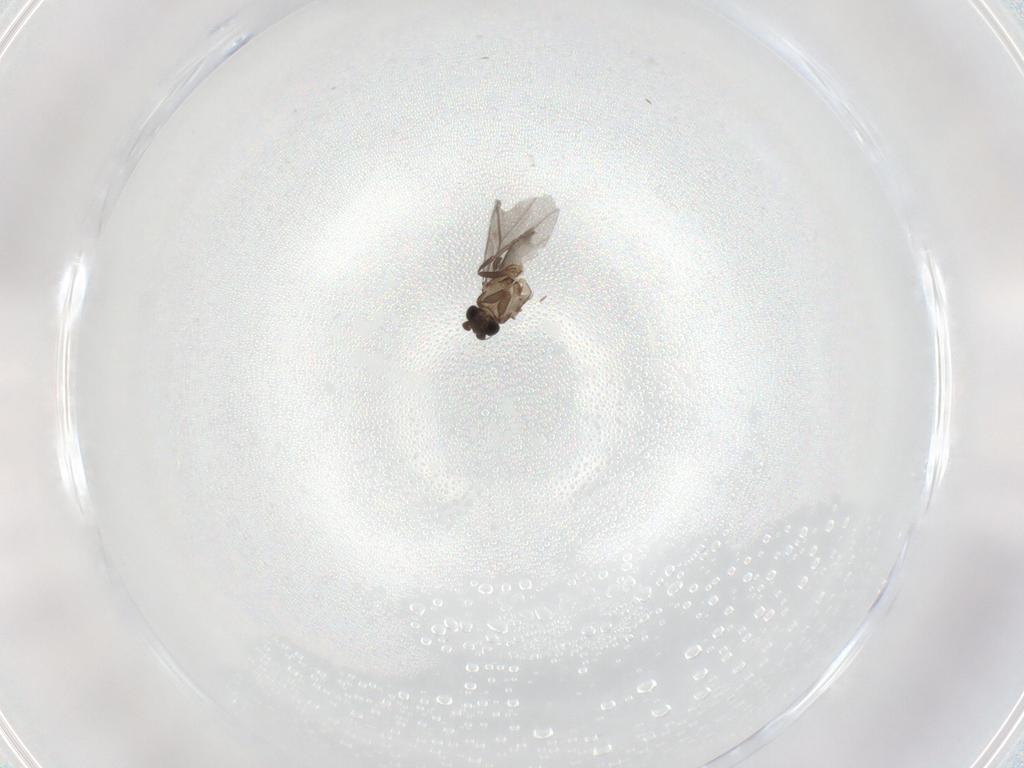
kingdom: Animalia
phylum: Arthropoda
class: Insecta
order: Diptera
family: Phoridae
